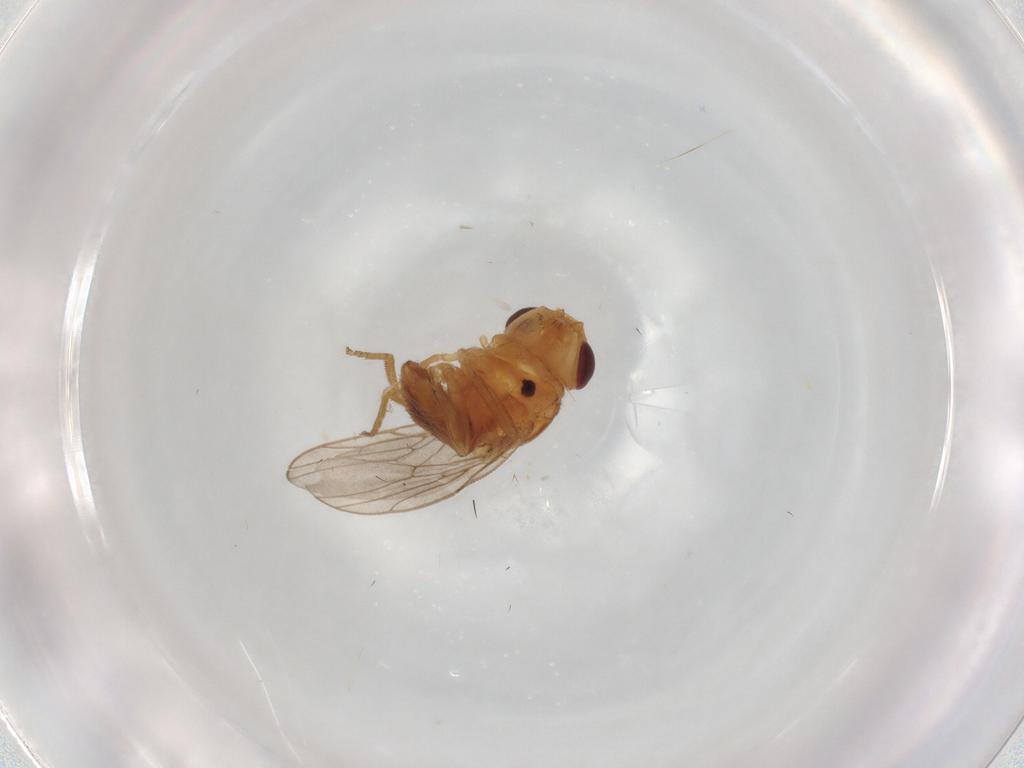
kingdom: Animalia
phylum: Arthropoda
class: Insecta
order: Diptera
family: Chloropidae
